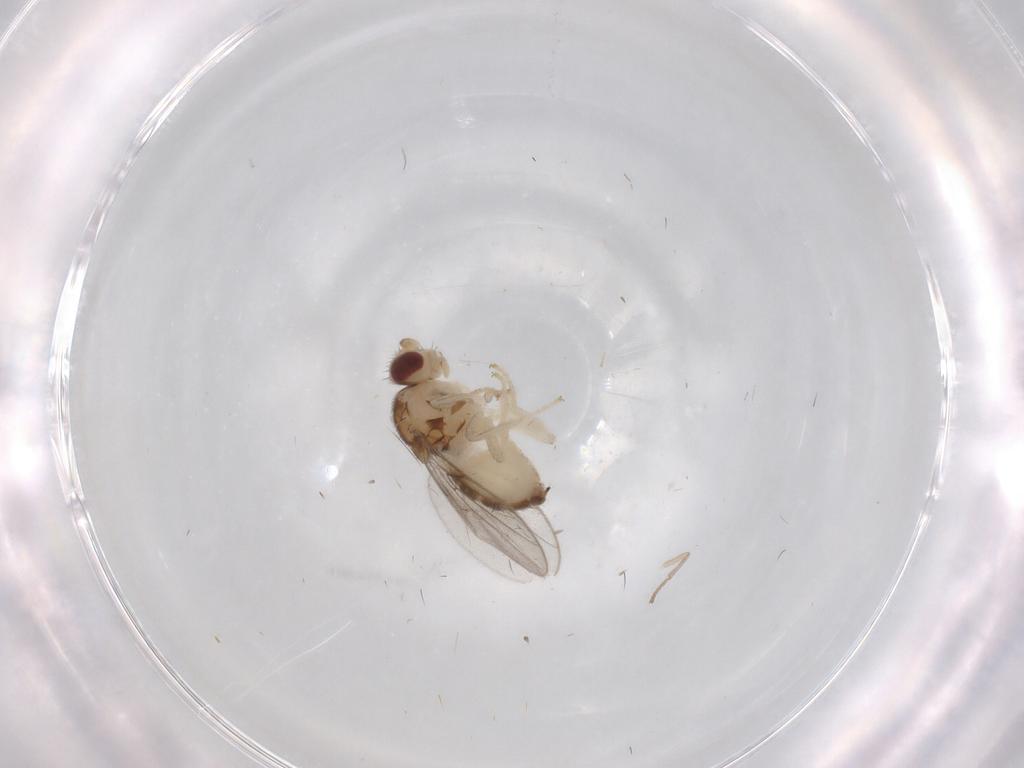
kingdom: Animalia
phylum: Arthropoda
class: Insecta
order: Diptera
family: Chloropidae
